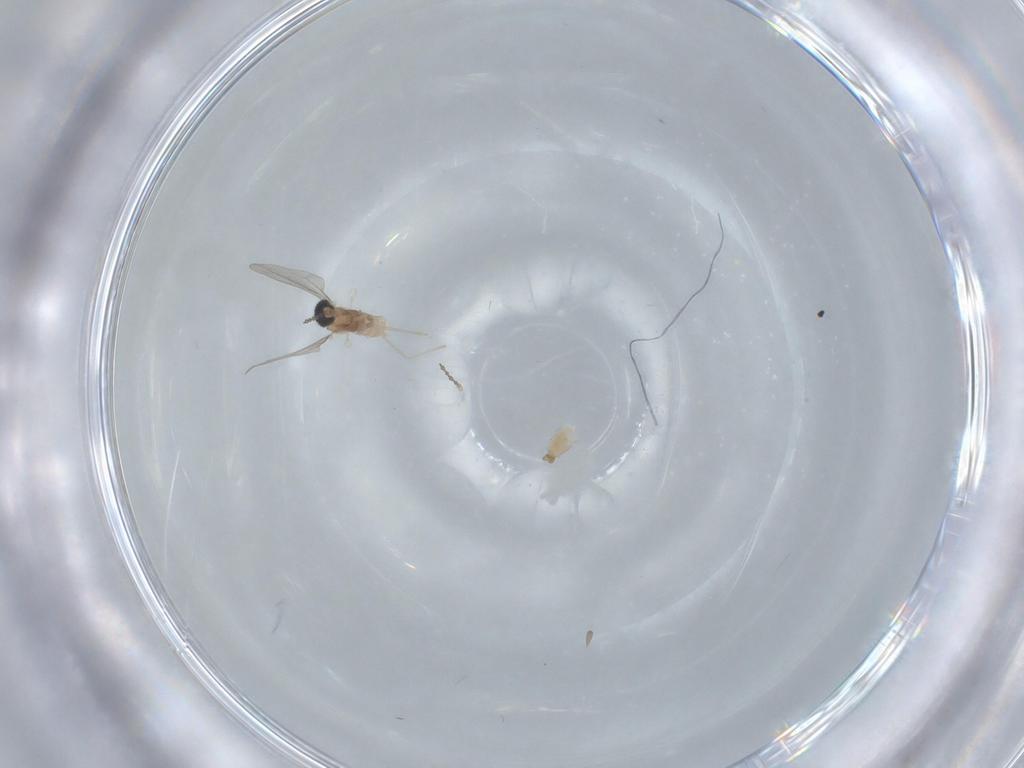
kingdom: Animalia
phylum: Arthropoda
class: Insecta
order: Diptera
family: Cecidomyiidae
